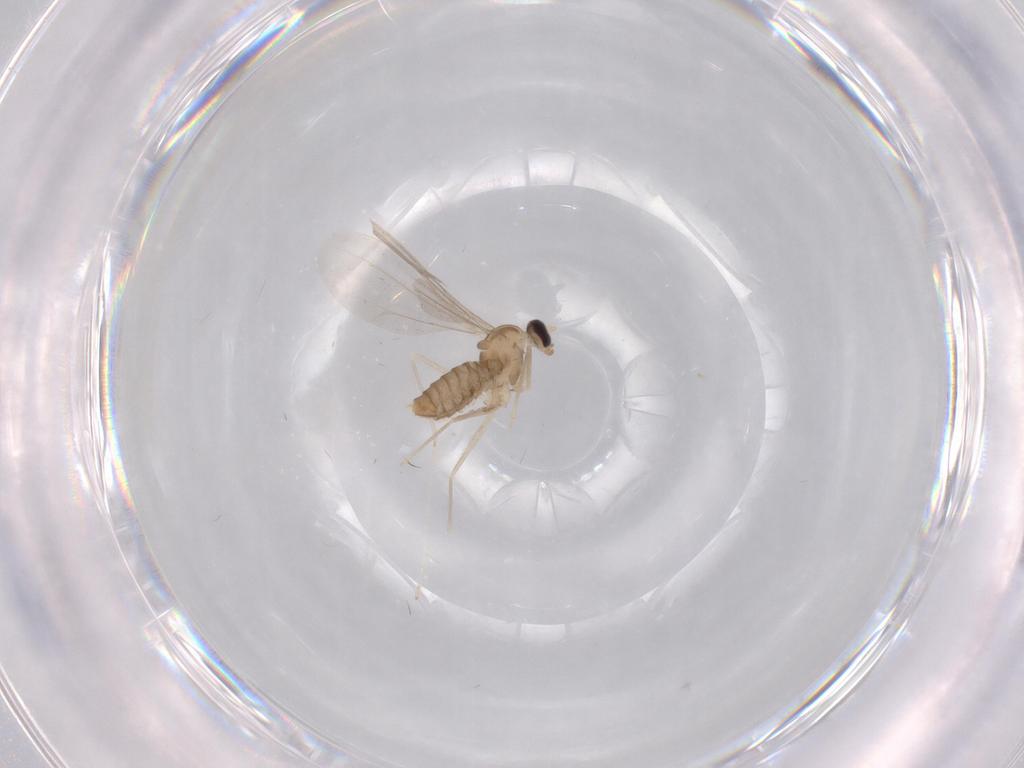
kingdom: Animalia
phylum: Arthropoda
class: Insecta
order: Diptera
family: Cecidomyiidae
